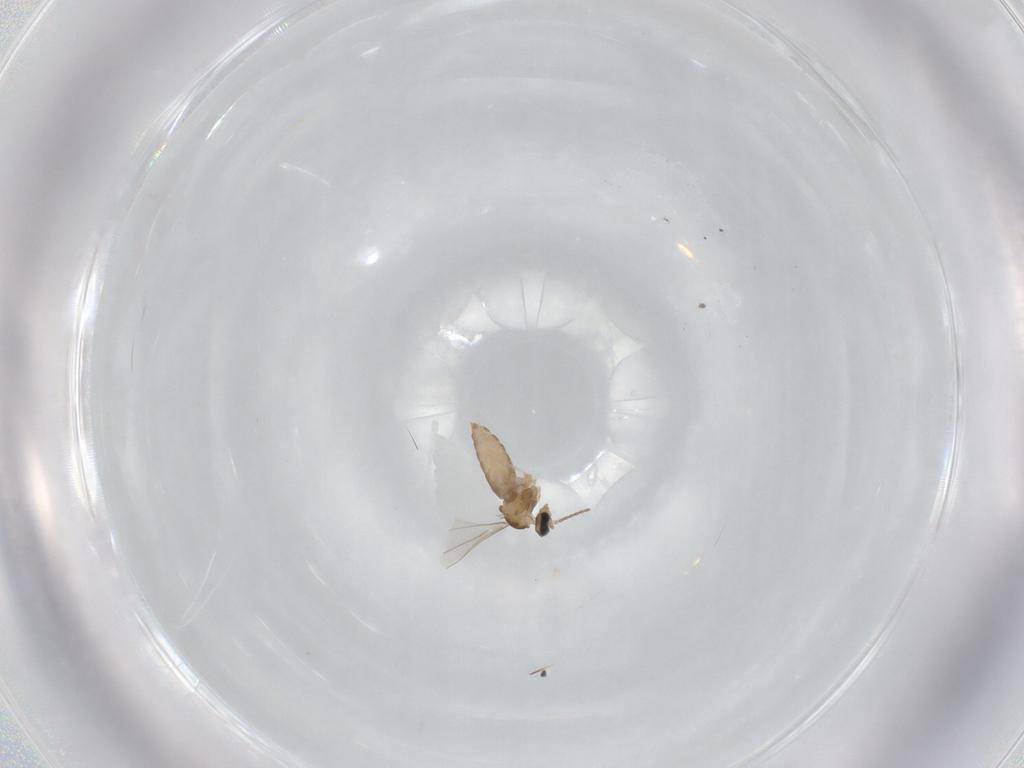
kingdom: Animalia
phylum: Arthropoda
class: Insecta
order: Diptera
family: Cecidomyiidae
